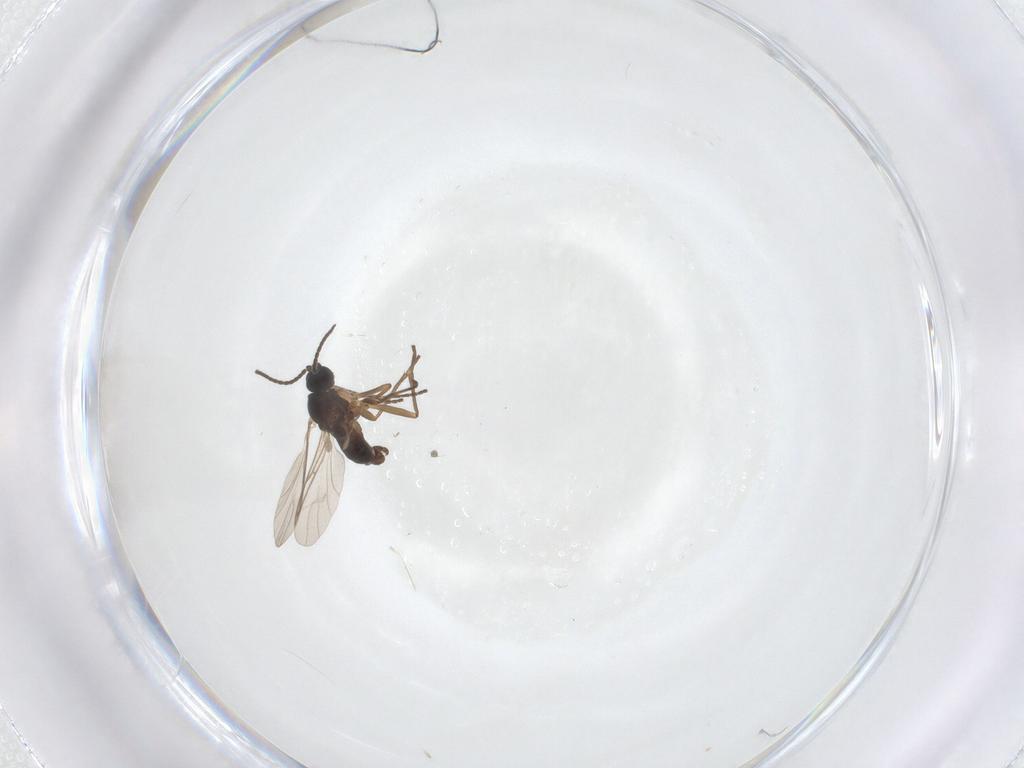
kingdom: Animalia
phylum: Arthropoda
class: Insecta
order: Diptera
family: Sciaridae
